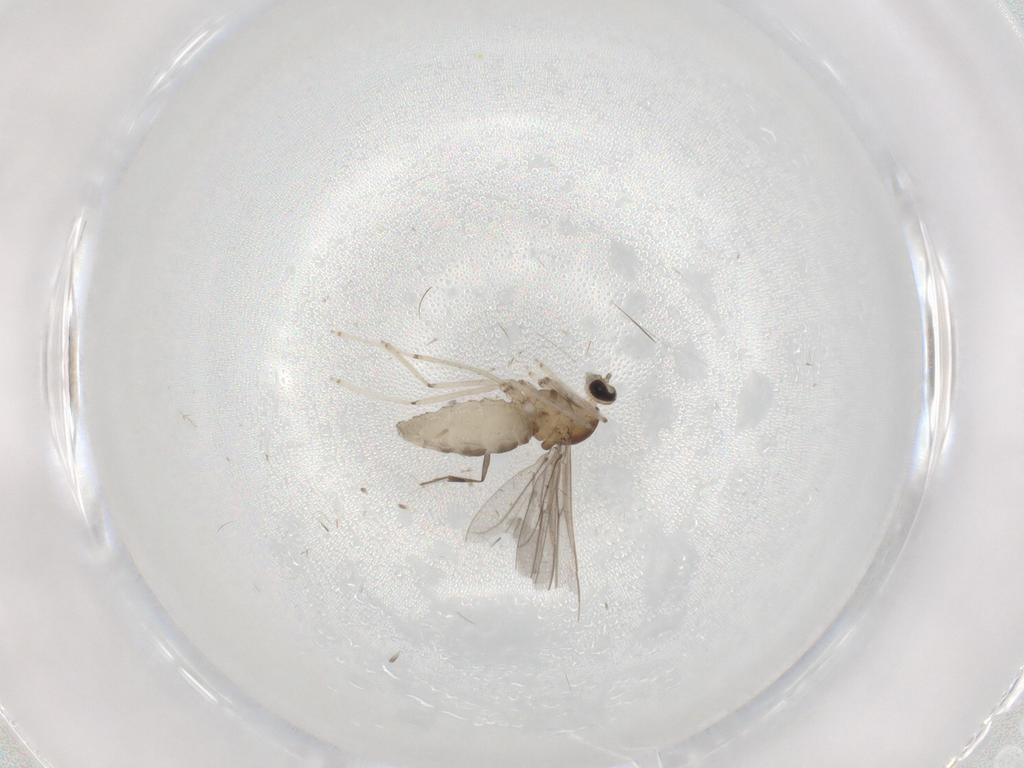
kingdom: Animalia
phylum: Arthropoda
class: Insecta
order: Diptera
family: Cecidomyiidae
